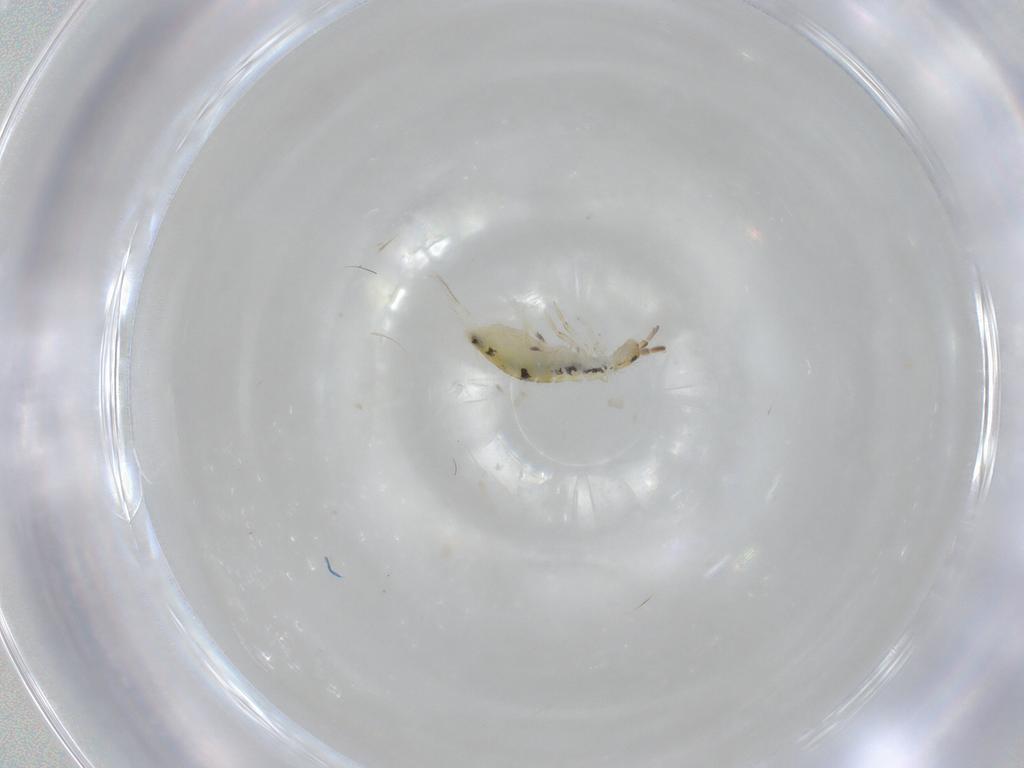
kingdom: Animalia
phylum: Arthropoda
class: Collembola
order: Entomobryomorpha
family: Entomobryidae
